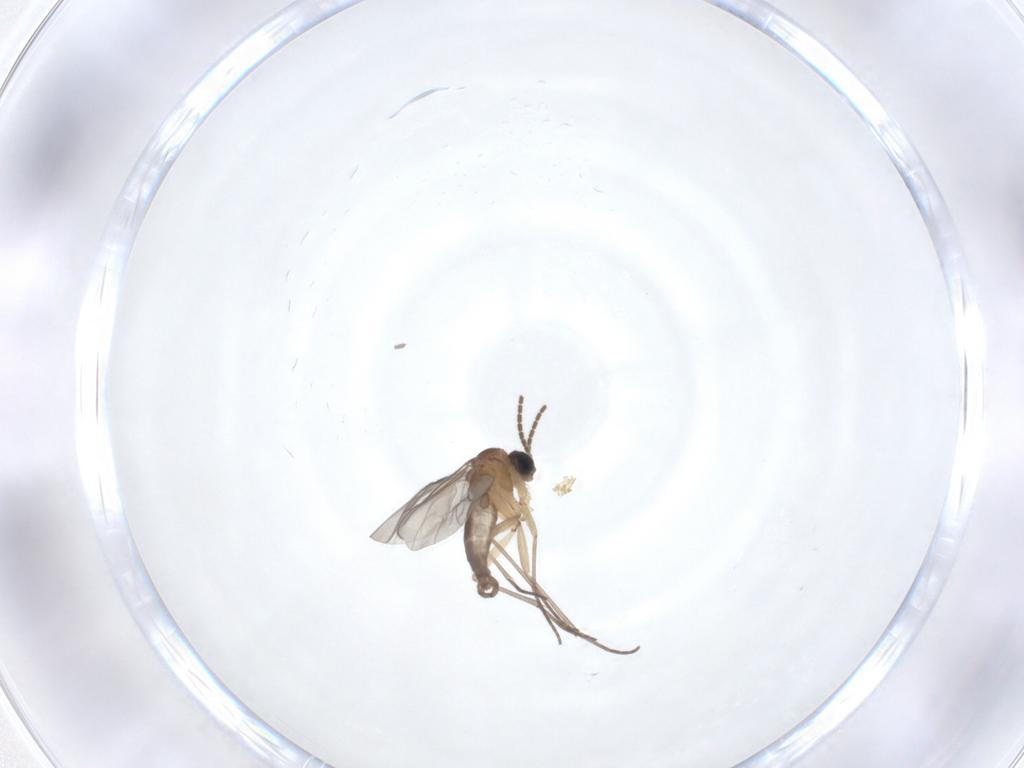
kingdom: Animalia
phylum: Arthropoda
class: Insecta
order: Diptera
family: Sciaridae
